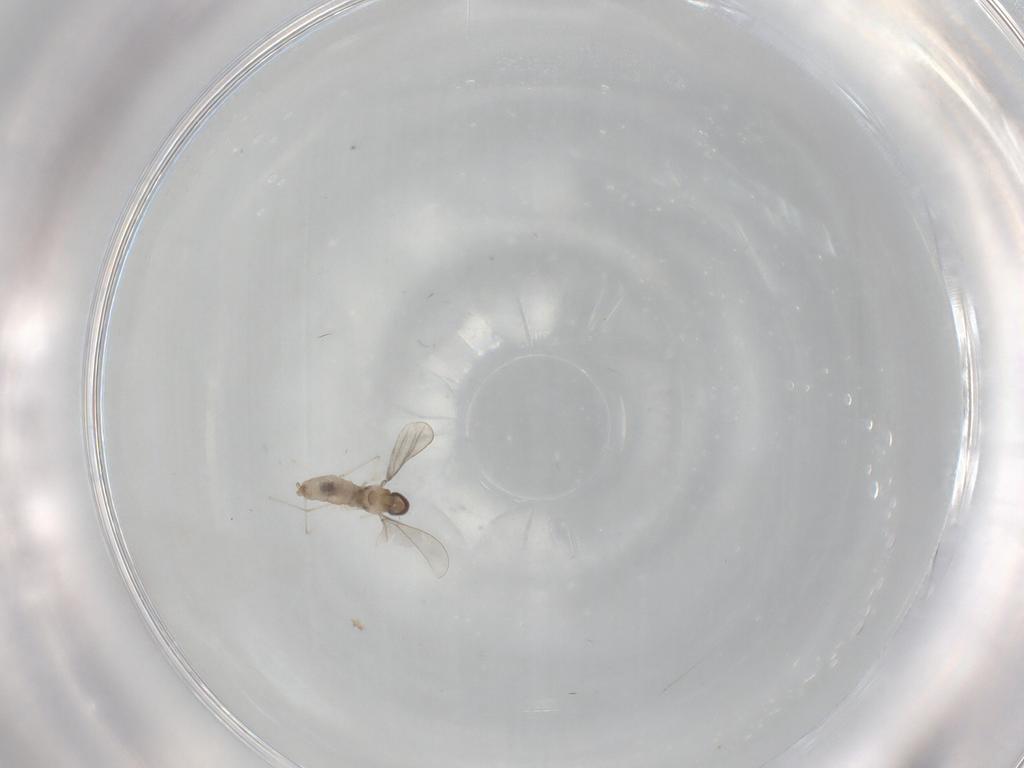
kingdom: Animalia
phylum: Arthropoda
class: Insecta
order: Diptera
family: Cecidomyiidae
